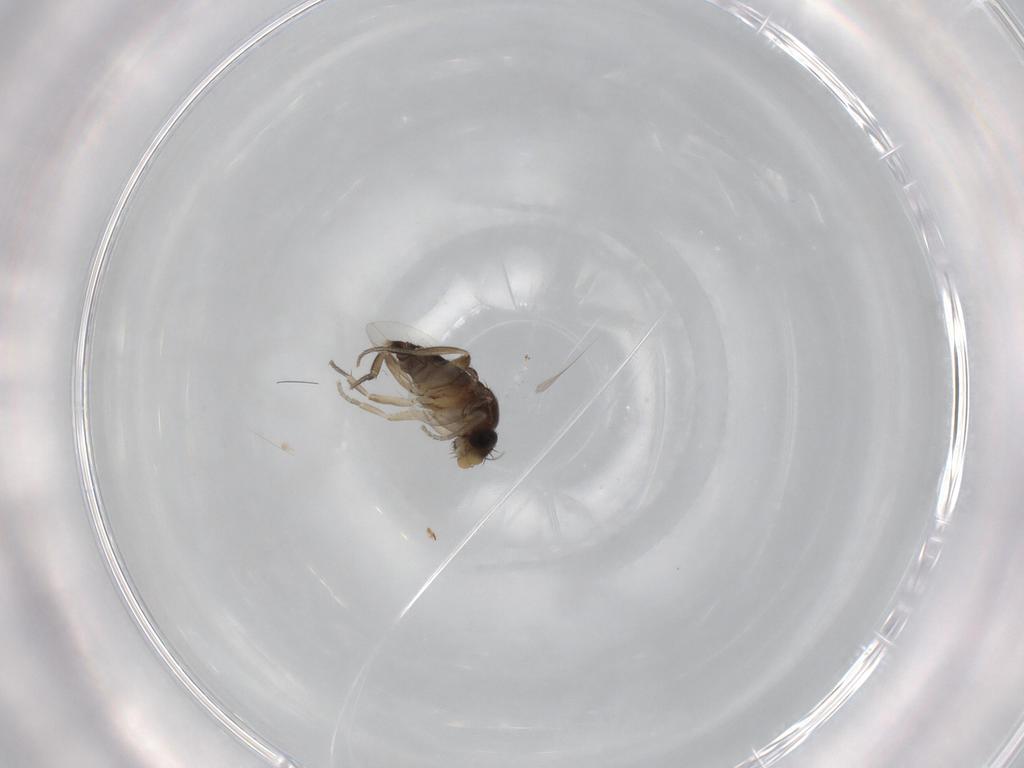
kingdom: Animalia
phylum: Arthropoda
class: Insecta
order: Diptera
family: Phoridae
